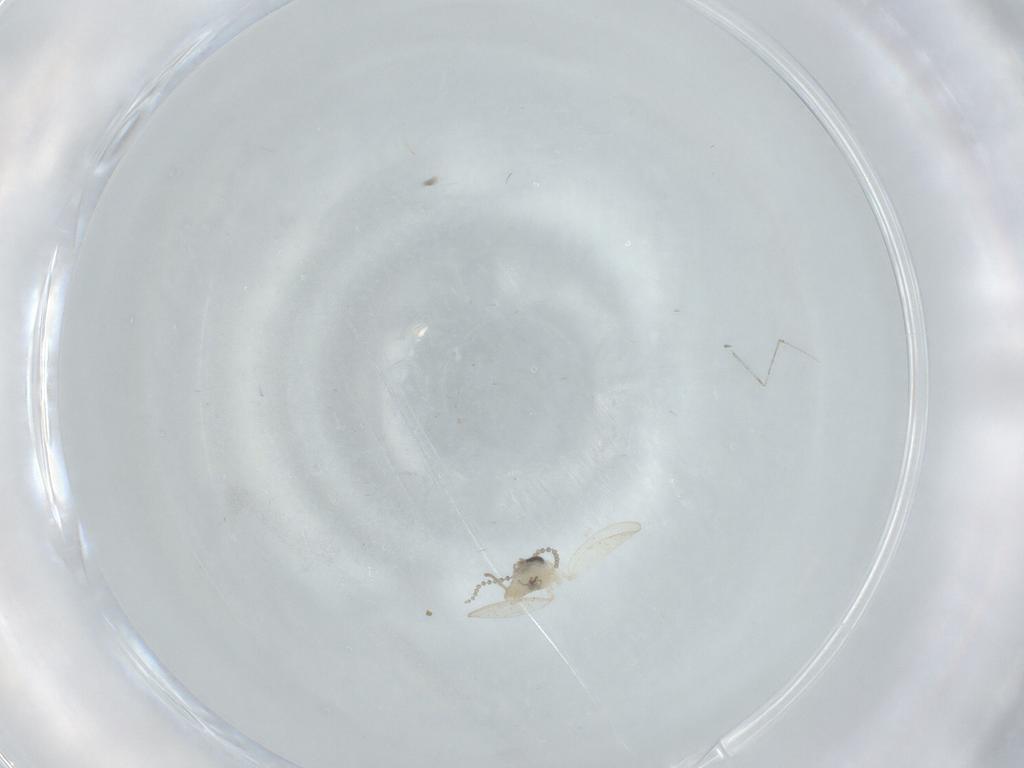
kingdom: Animalia
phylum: Arthropoda
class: Insecta
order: Diptera
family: Psychodidae
